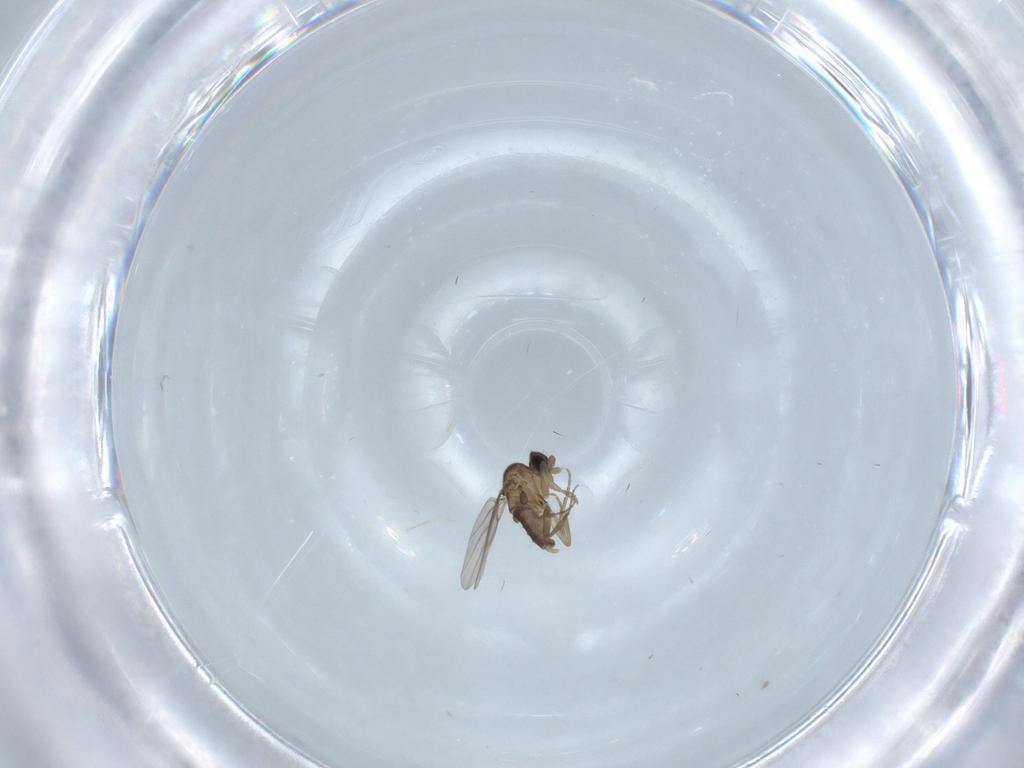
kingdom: Animalia
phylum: Arthropoda
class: Insecta
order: Diptera
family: Phoridae
